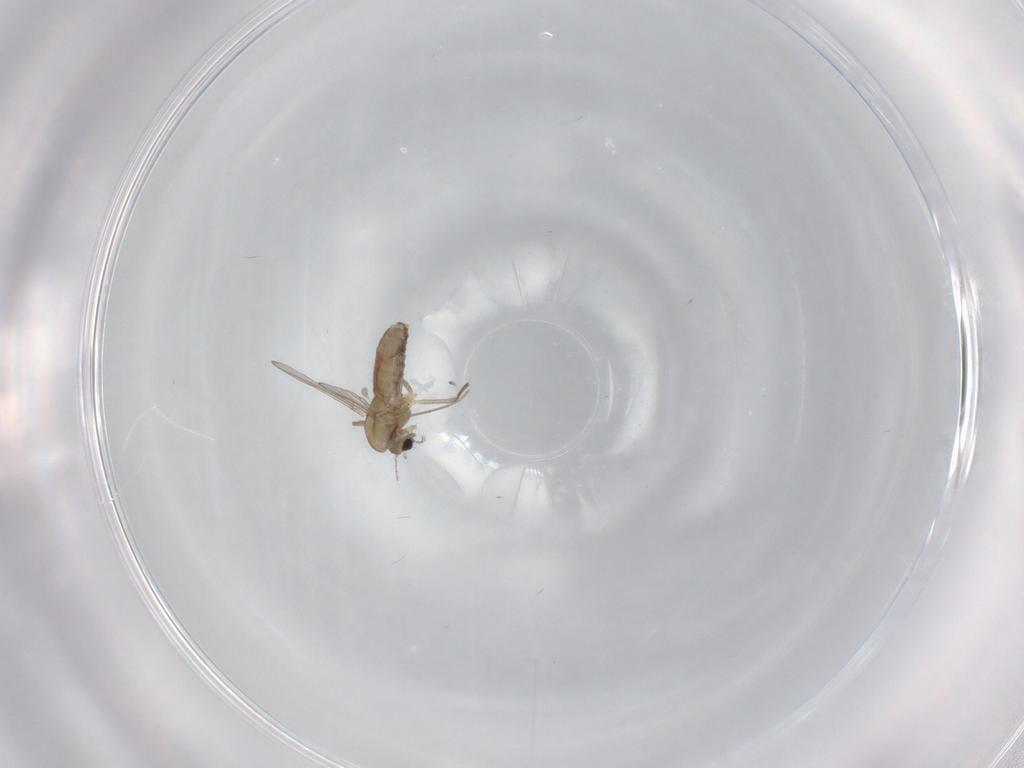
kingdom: Animalia
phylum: Arthropoda
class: Insecta
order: Diptera
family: Chironomidae
